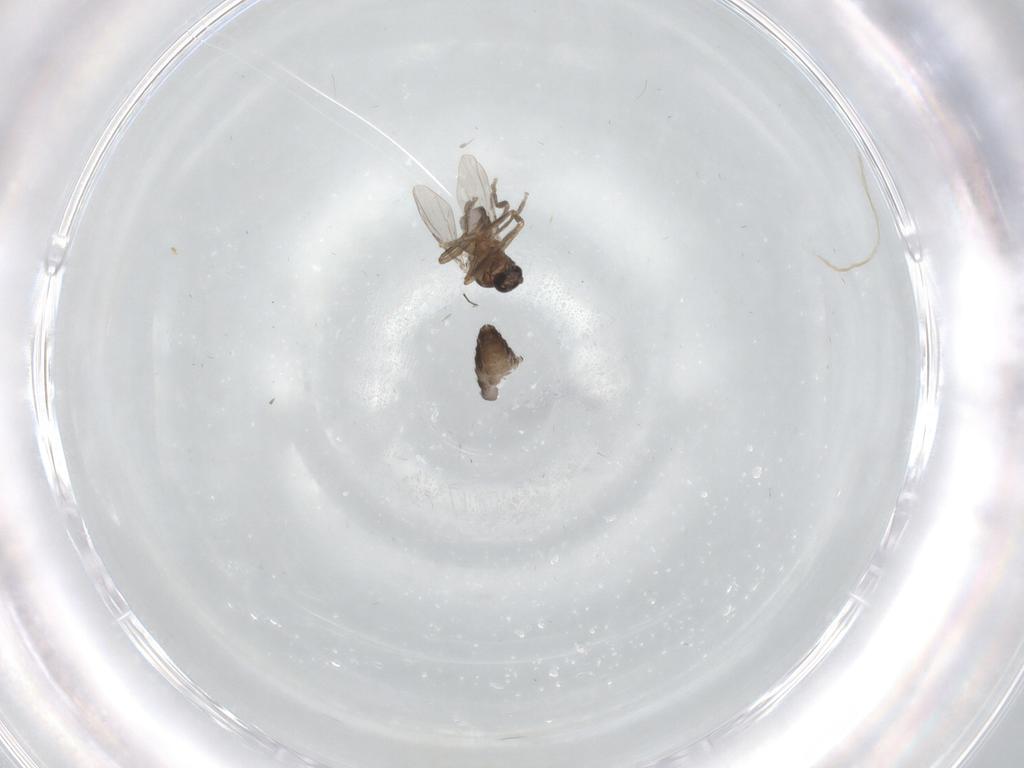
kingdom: Animalia
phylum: Arthropoda
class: Insecta
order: Diptera
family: Ceratopogonidae
